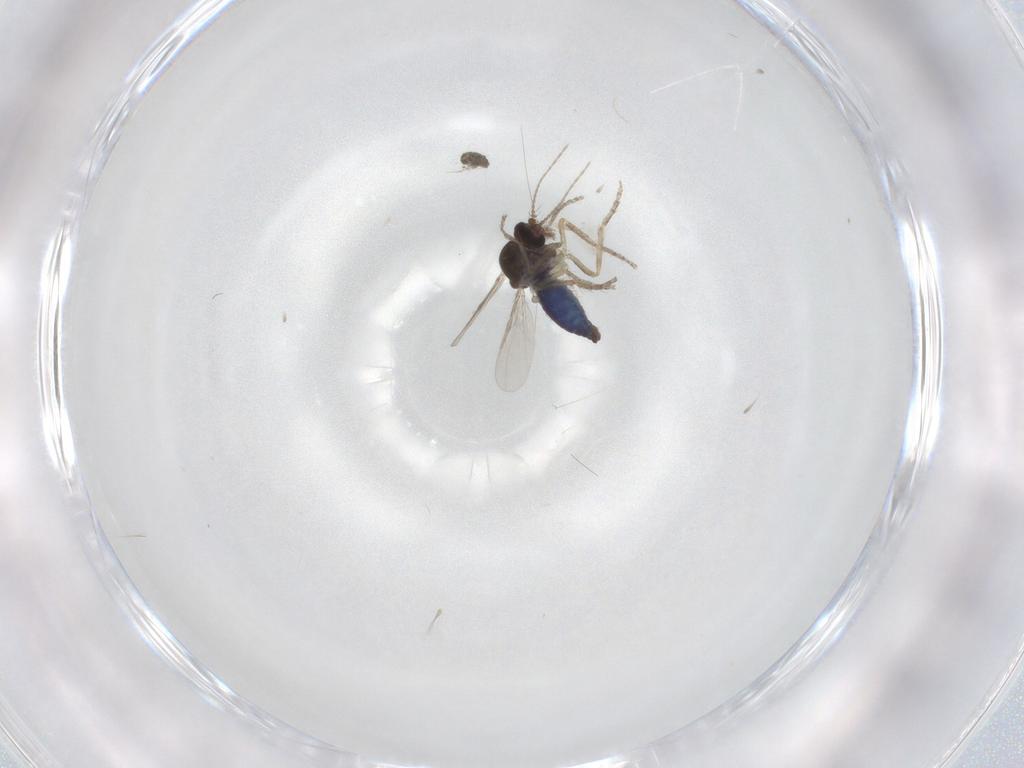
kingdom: Animalia
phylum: Arthropoda
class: Insecta
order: Diptera
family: Ceratopogonidae
